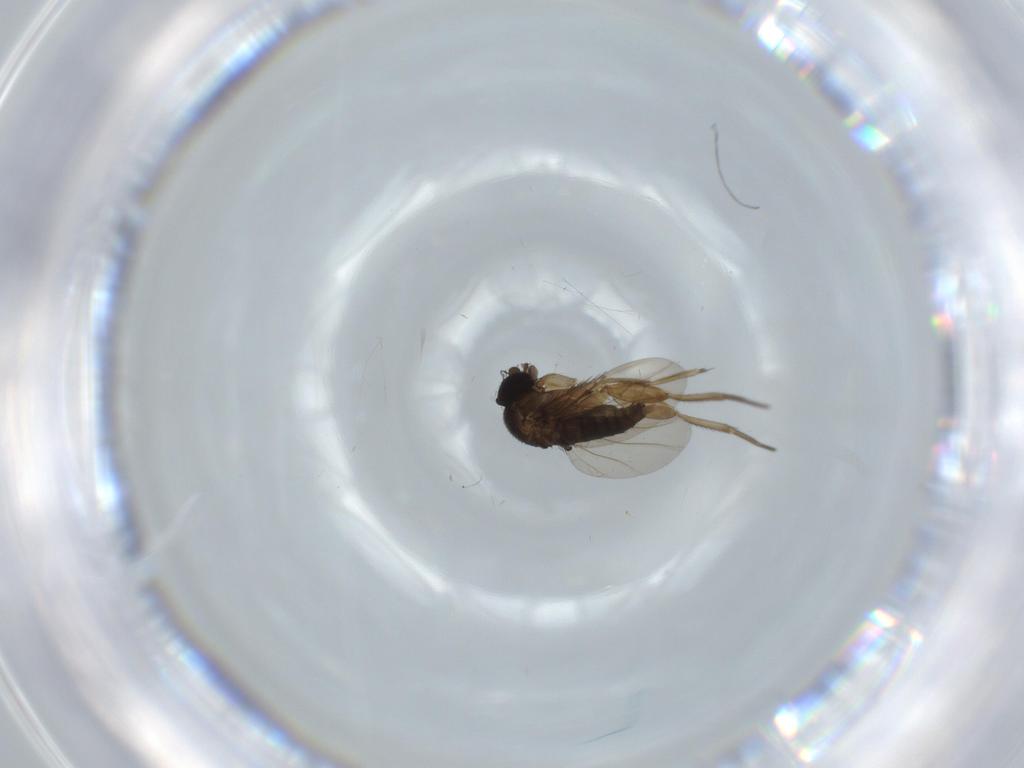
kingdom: Animalia
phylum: Arthropoda
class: Insecta
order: Diptera
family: Phoridae
